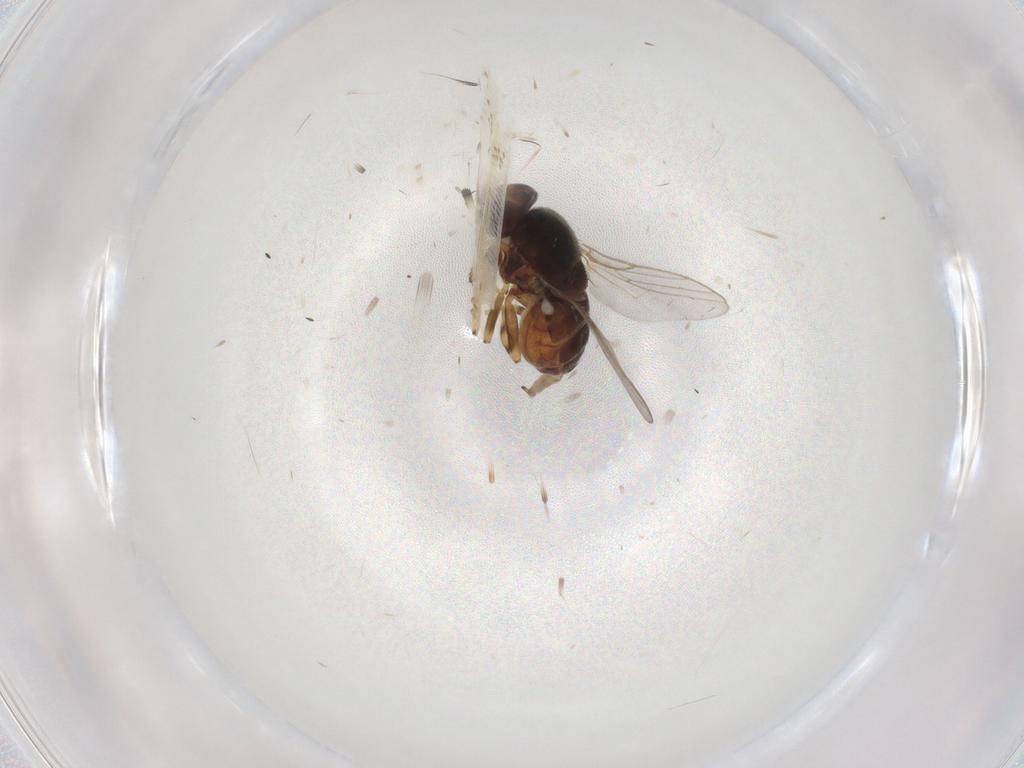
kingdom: Animalia
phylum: Arthropoda
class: Insecta
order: Diptera
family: Chloropidae
